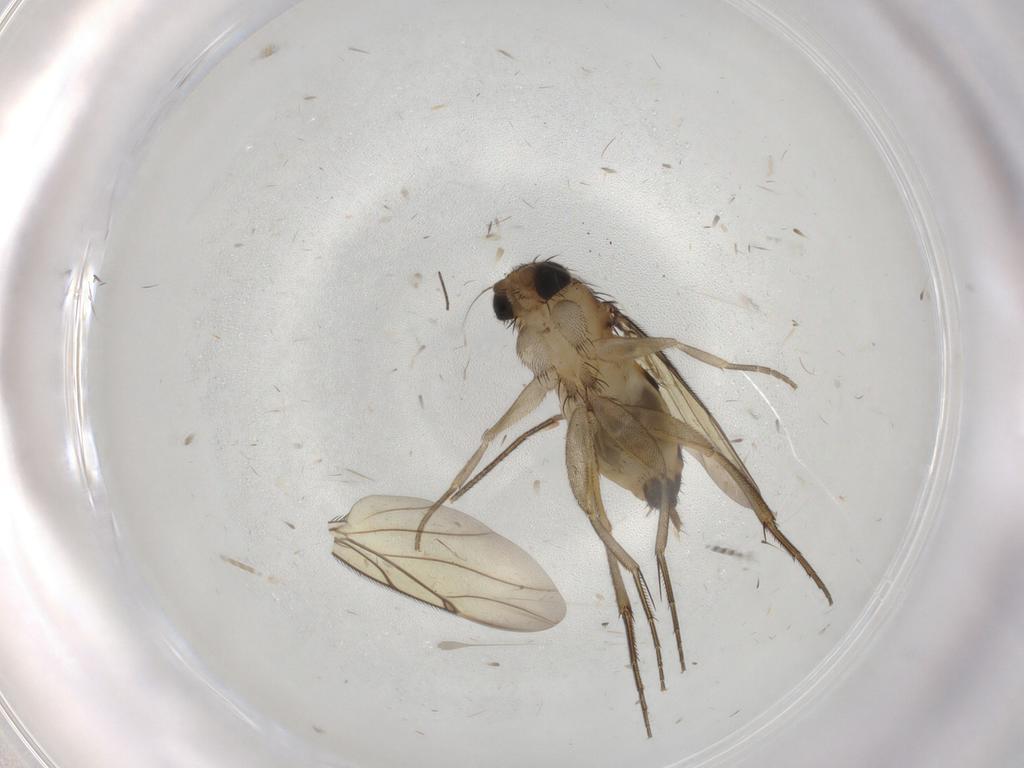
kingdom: Animalia
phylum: Arthropoda
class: Insecta
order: Diptera
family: Chironomidae
